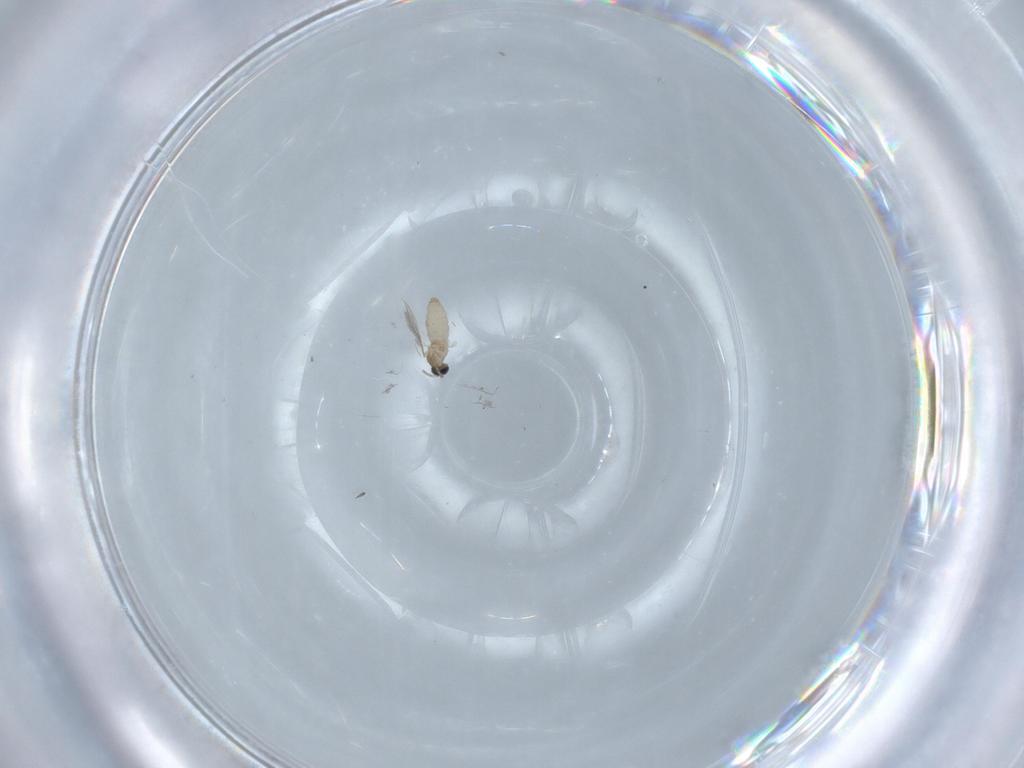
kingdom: Animalia
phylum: Arthropoda
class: Insecta
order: Diptera
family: Cecidomyiidae
